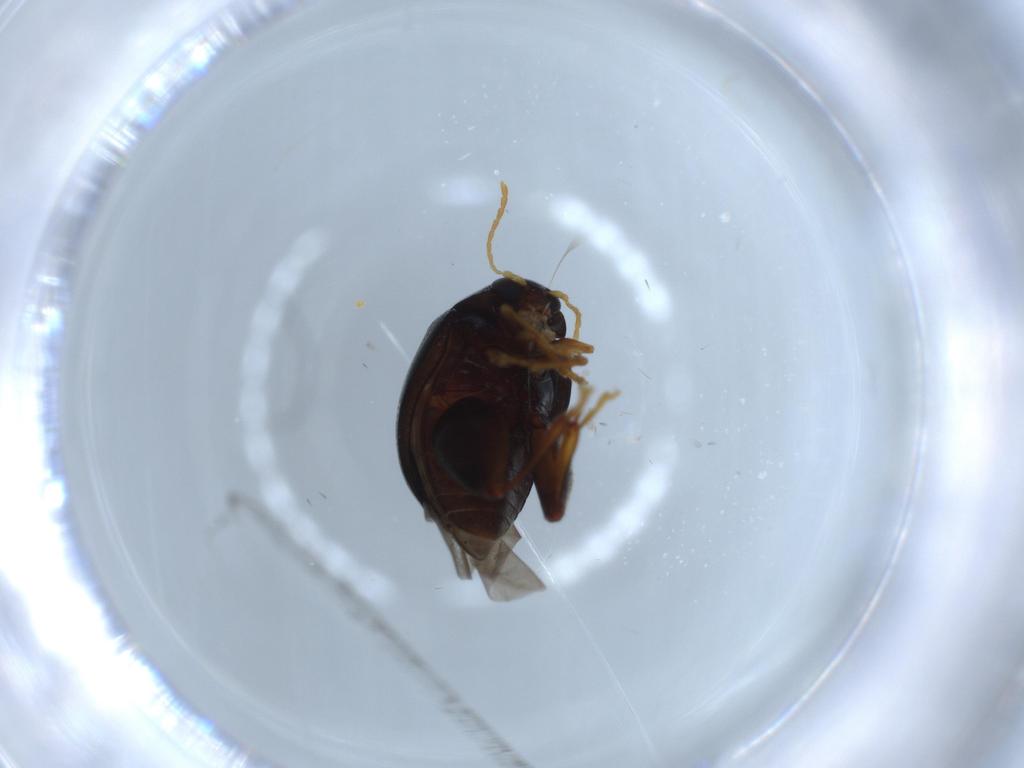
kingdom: Animalia
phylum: Arthropoda
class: Insecta
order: Coleoptera
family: Chrysomelidae
